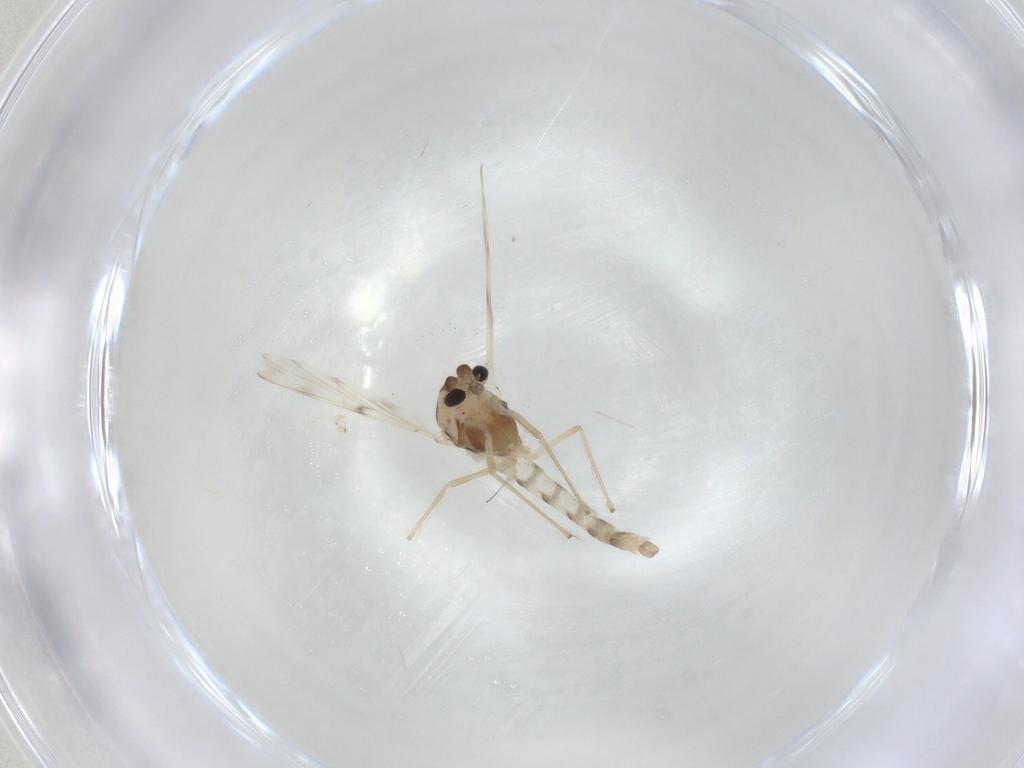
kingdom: Animalia
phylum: Arthropoda
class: Insecta
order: Diptera
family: Chironomidae
